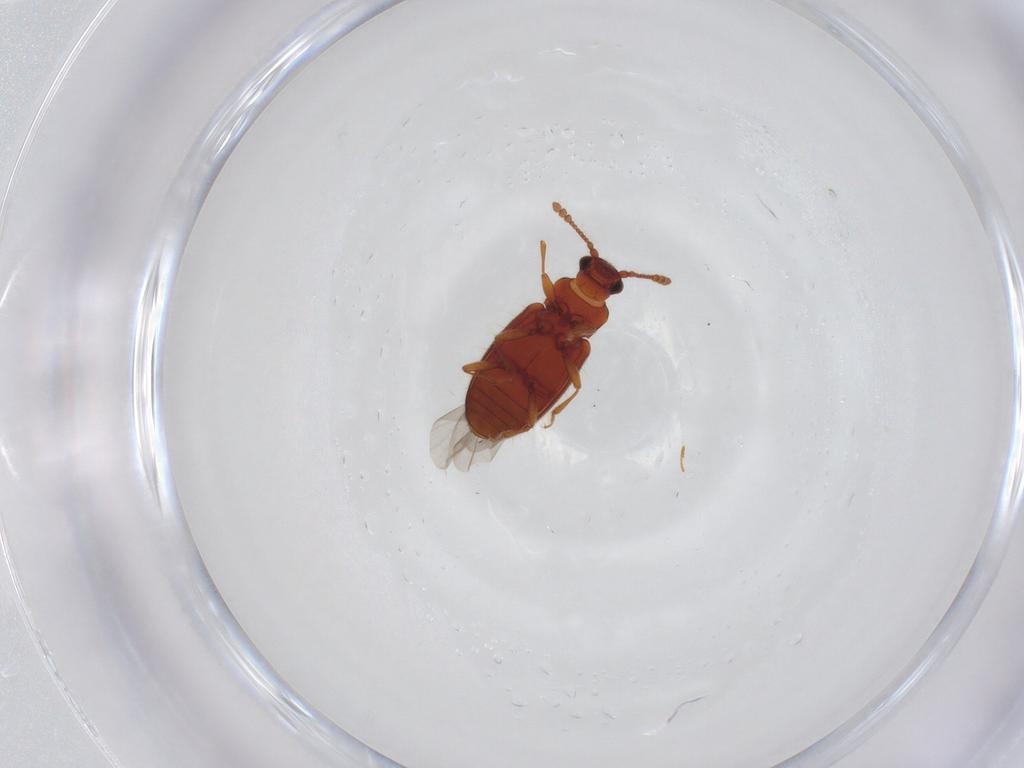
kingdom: Animalia
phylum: Arthropoda
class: Insecta
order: Coleoptera
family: Cryptophagidae
